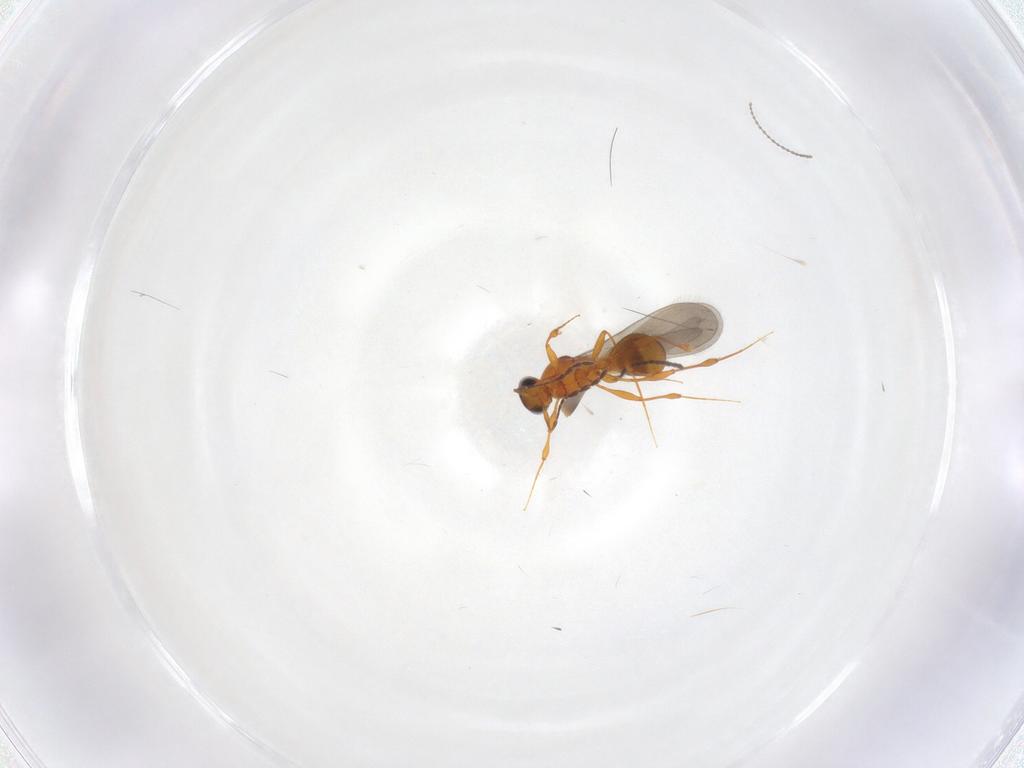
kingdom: Animalia
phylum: Arthropoda
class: Insecta
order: Hymenoptera
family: Platygastridae
